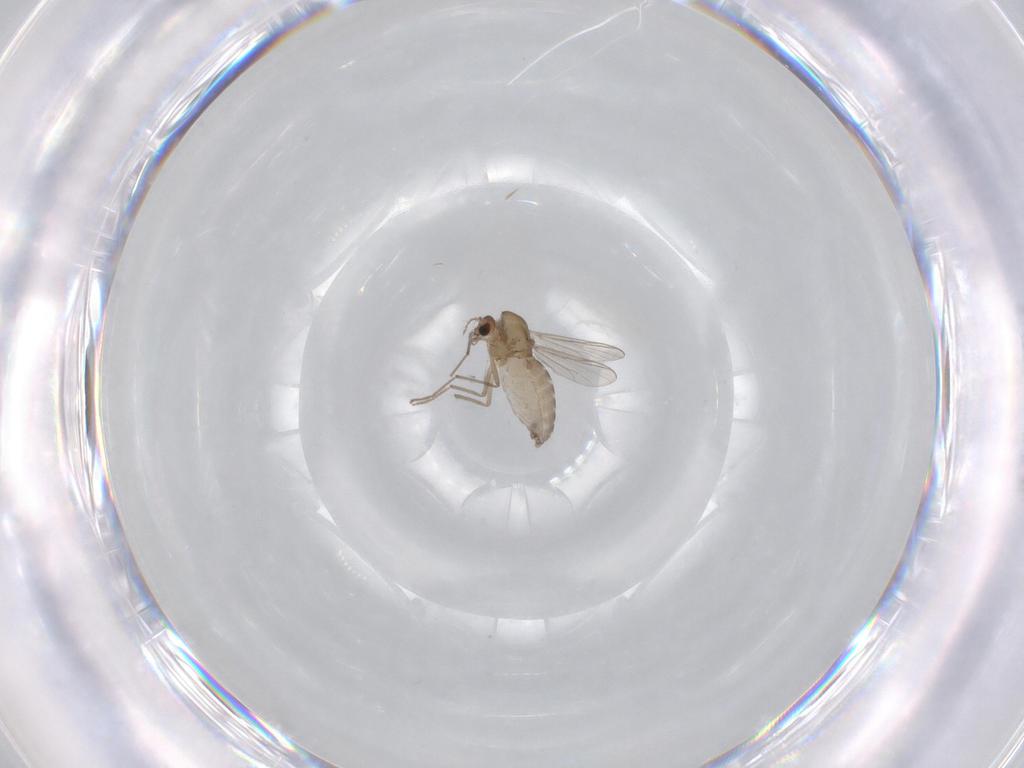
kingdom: Animalia
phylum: Arthropoda
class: Insecta
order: Diptera
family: Chironomidae
